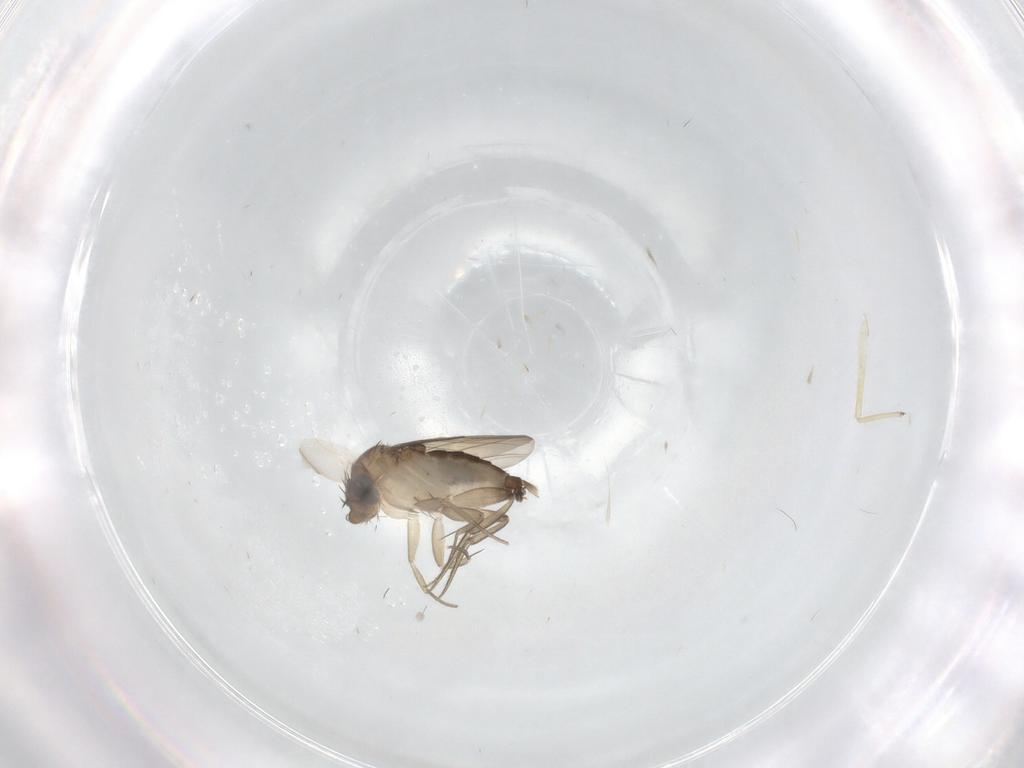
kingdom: Animalia
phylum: Arthropoda
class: Insecta
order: Diptera
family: Phoridae
